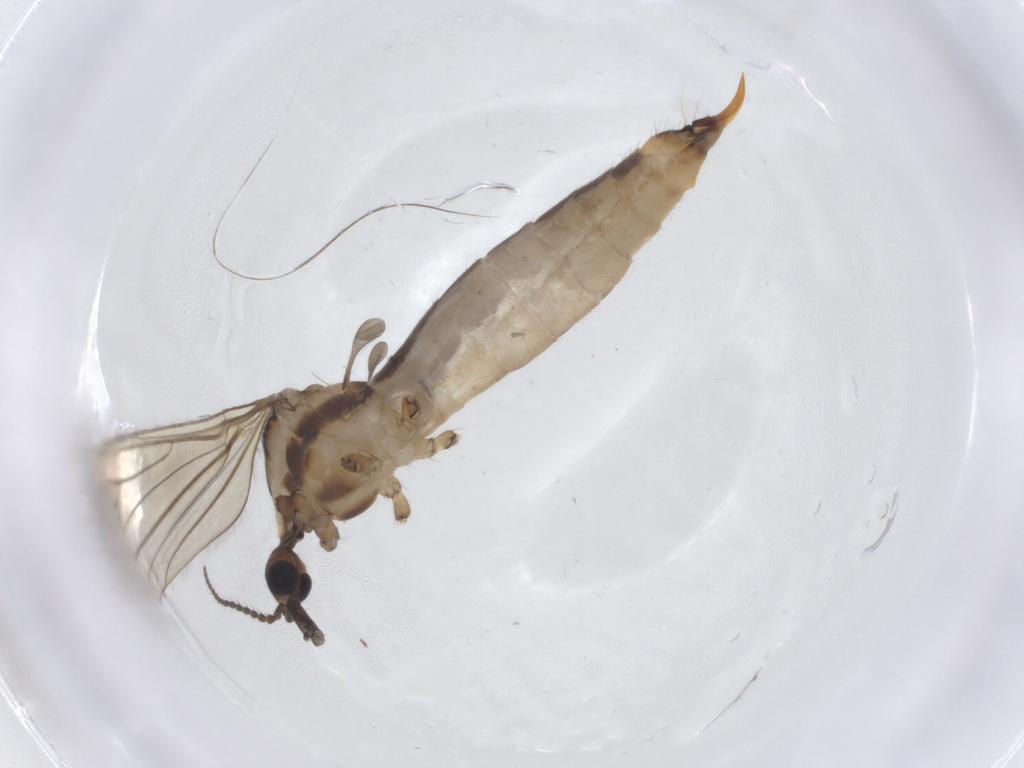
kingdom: Animalia
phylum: Arthropoda
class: Insecta
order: Diptera
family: Limoniidae
